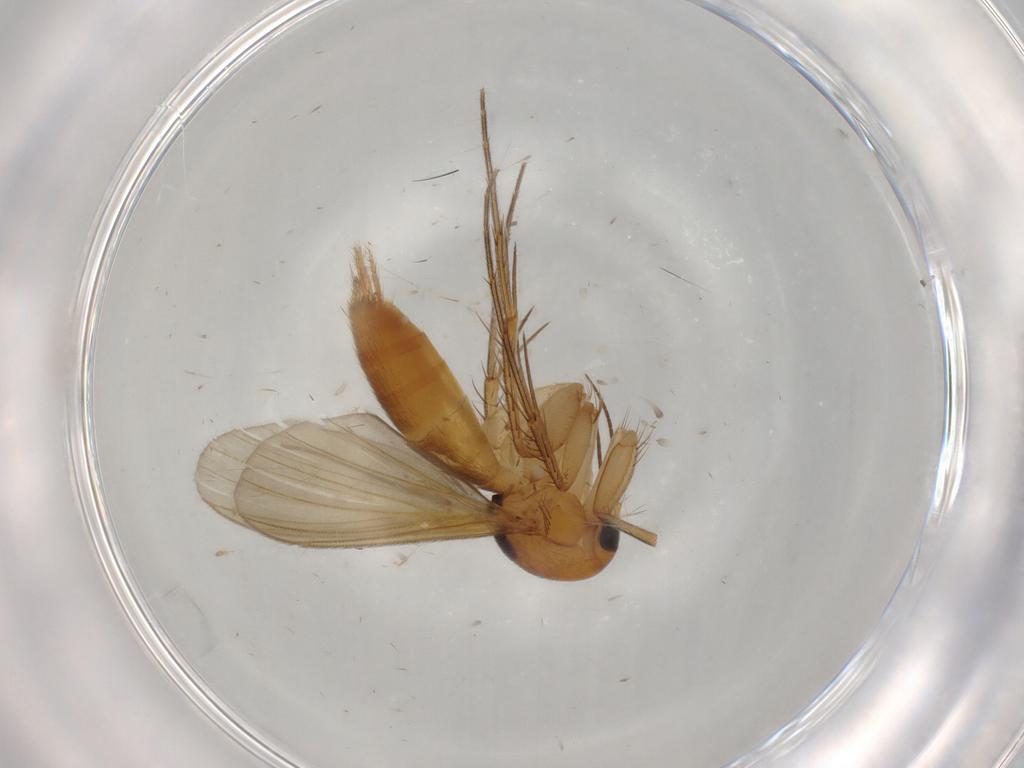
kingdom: Animalia
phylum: Arthropoda
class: Insecta
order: Diptera
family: Mycetophilidae
